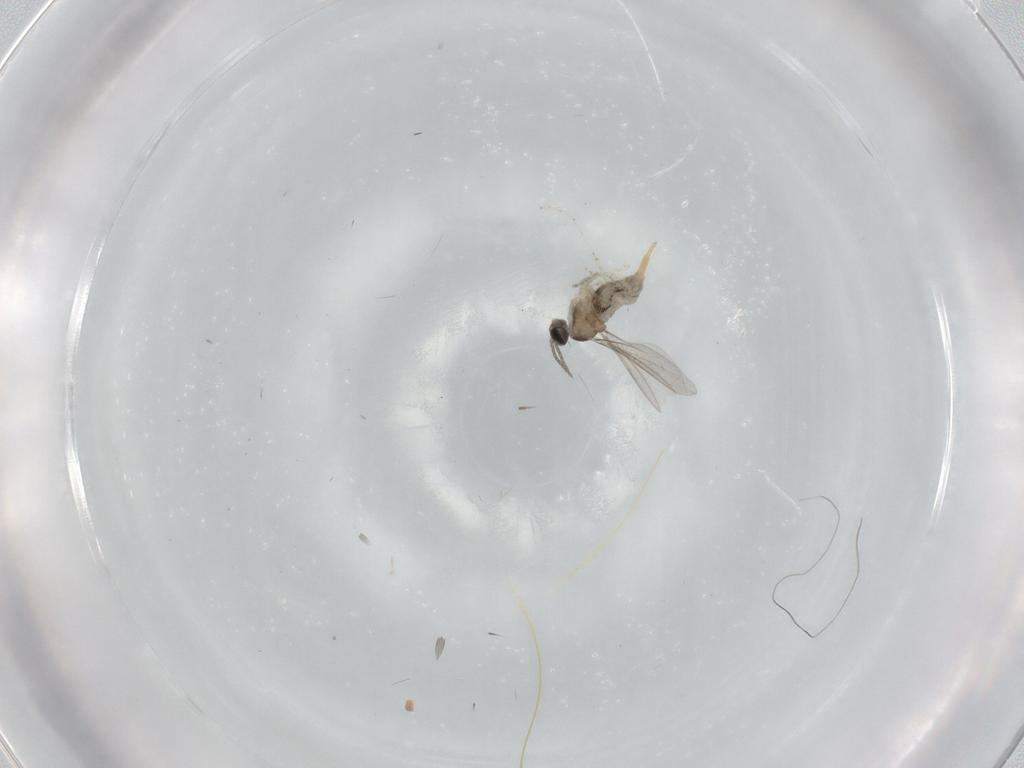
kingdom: Animalia
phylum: Arthropoda
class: Insecta
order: Diptera
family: Cecidomyiidae
